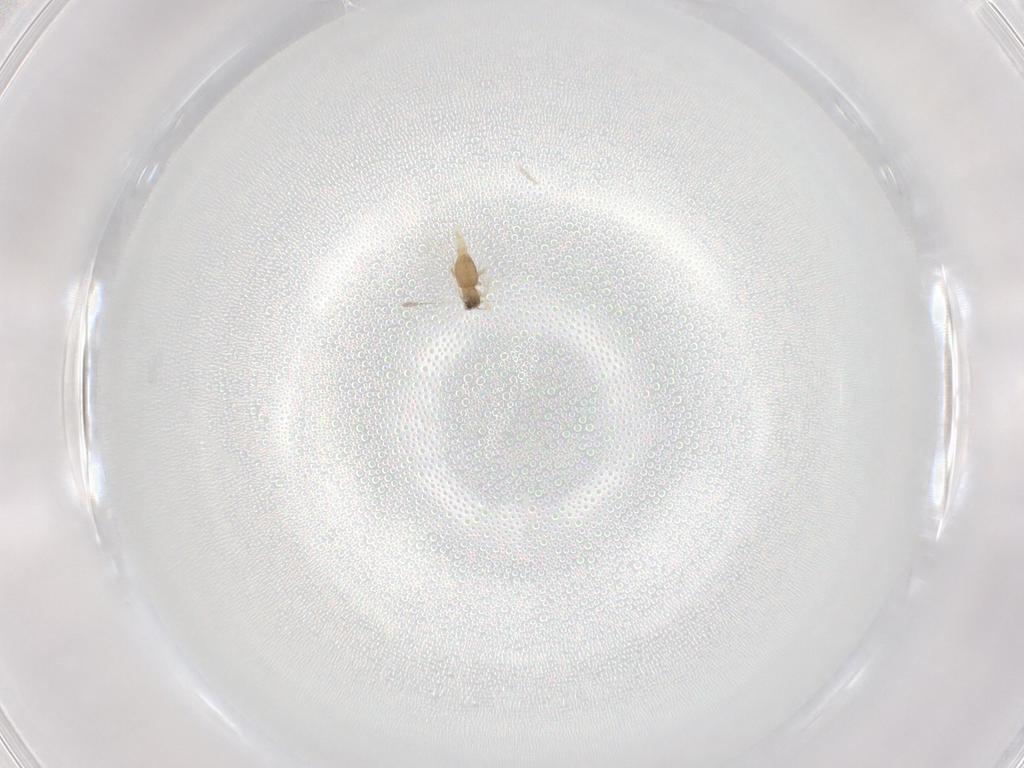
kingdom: Animalia
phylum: Arthropoda
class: Insecta
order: Diptera
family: Sciaridae
